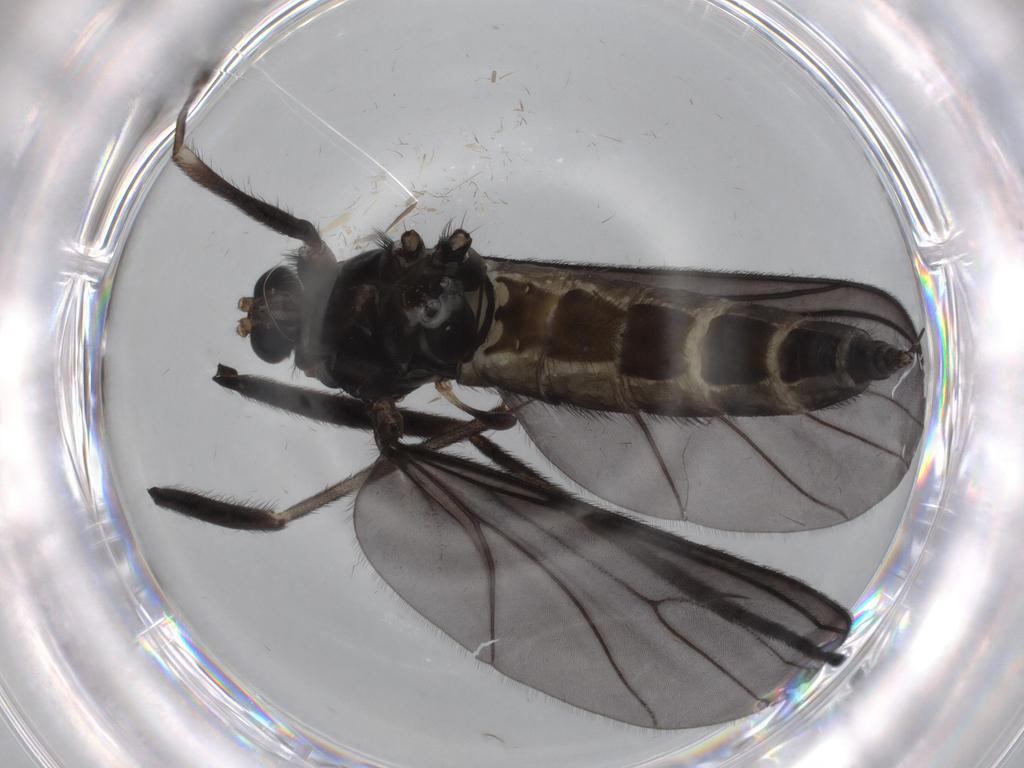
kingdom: Animalia
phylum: Arthropoda
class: Insecta
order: Diptera
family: Sciaridae
